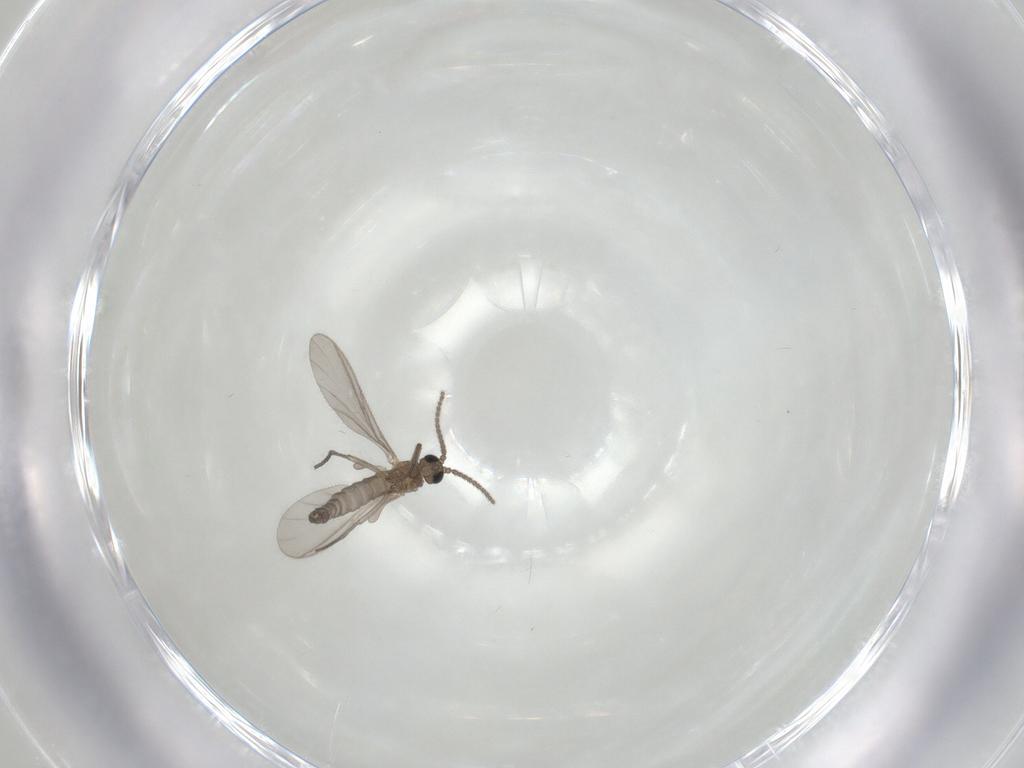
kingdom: Animalia
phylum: Arthropoda
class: Insecta
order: Diptera
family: Sciaridae
